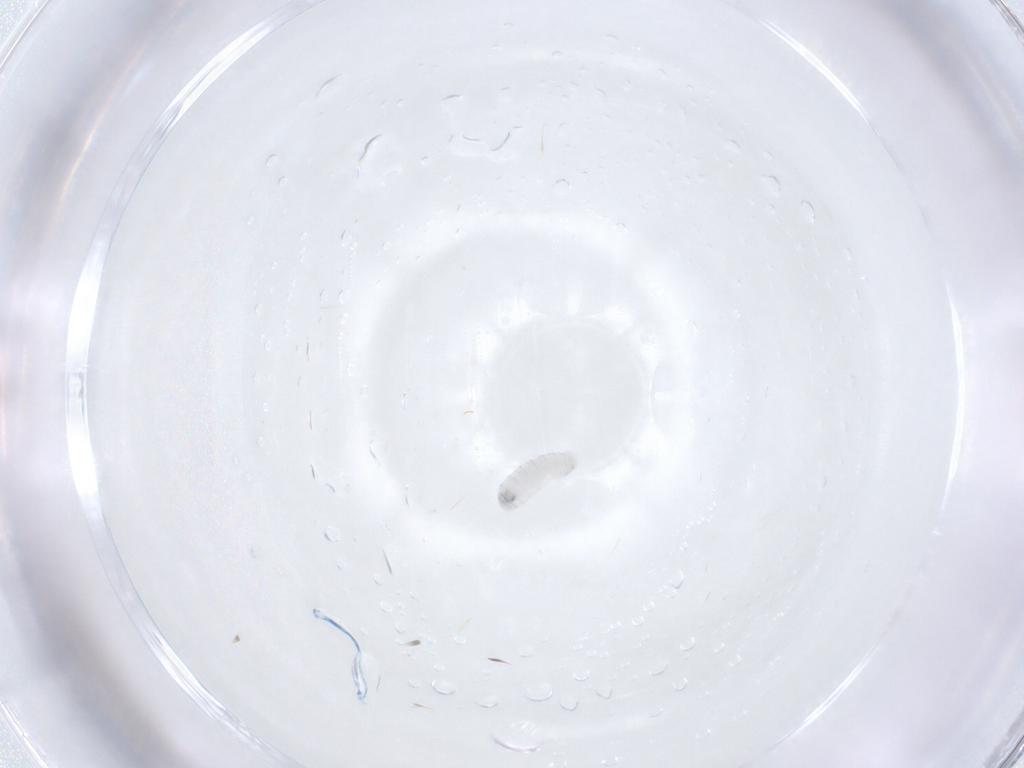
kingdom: Animalia
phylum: Arthropoda
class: Insecta
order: Diptera
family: Tachinidae
